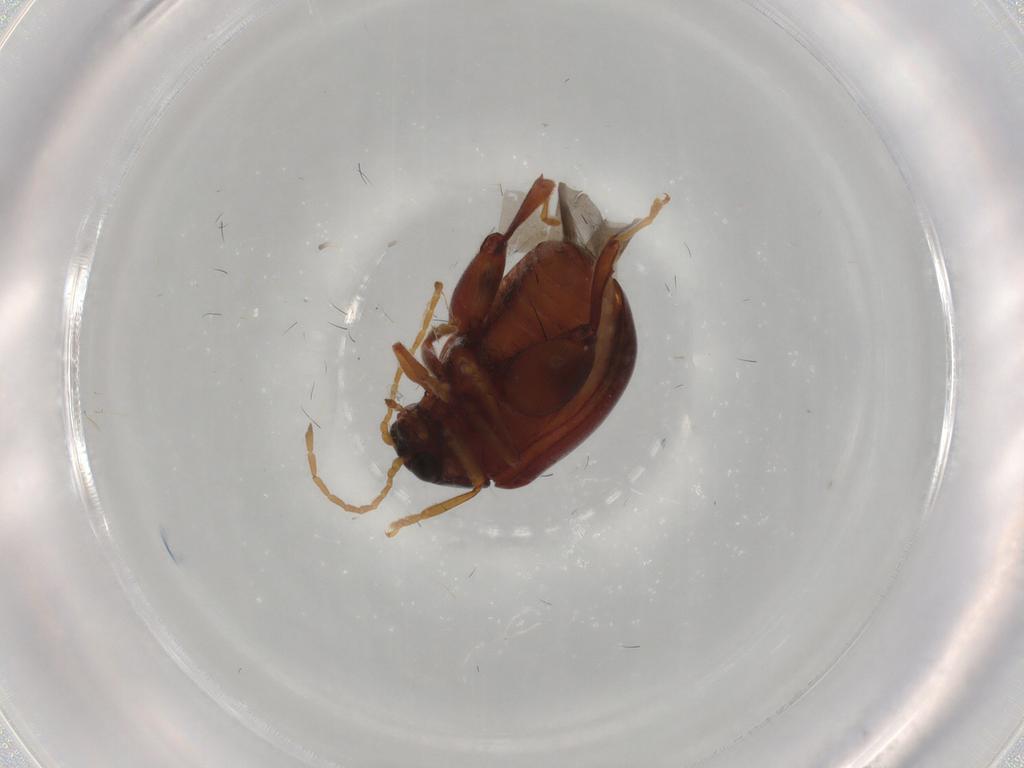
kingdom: Animalia
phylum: Arthropoda
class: Insecta
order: Coleoptera
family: Chrysomelidae
